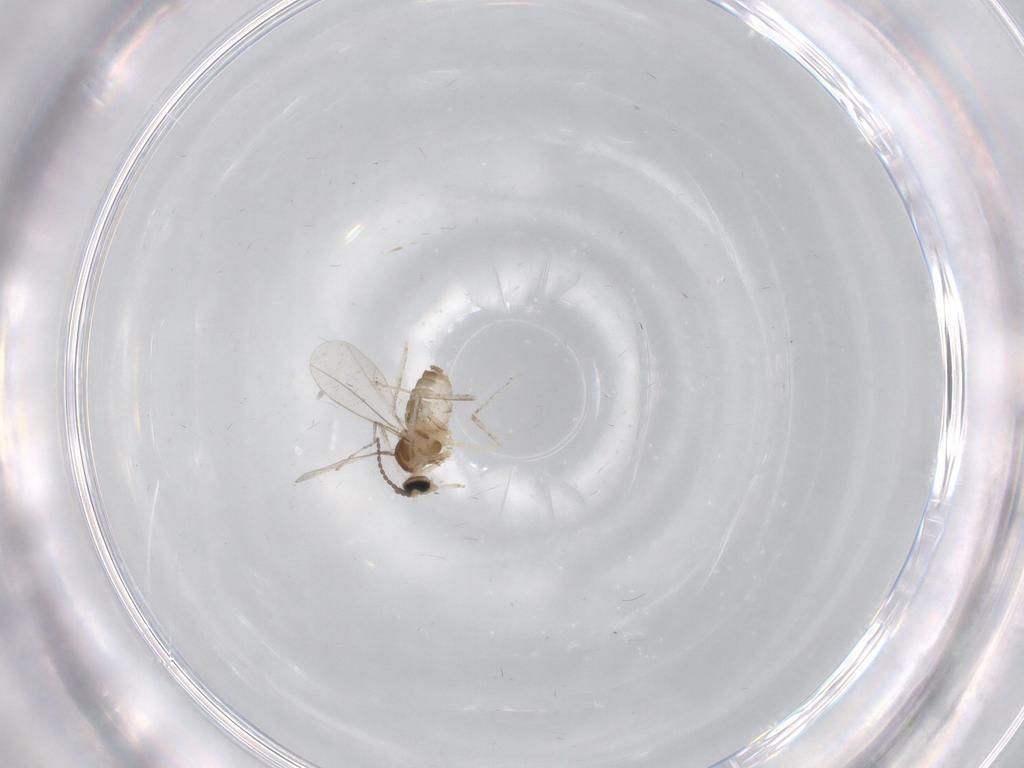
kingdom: Animalia
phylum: Arthropoda
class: Insecta
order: Diptera
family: Cecidomyiidae
